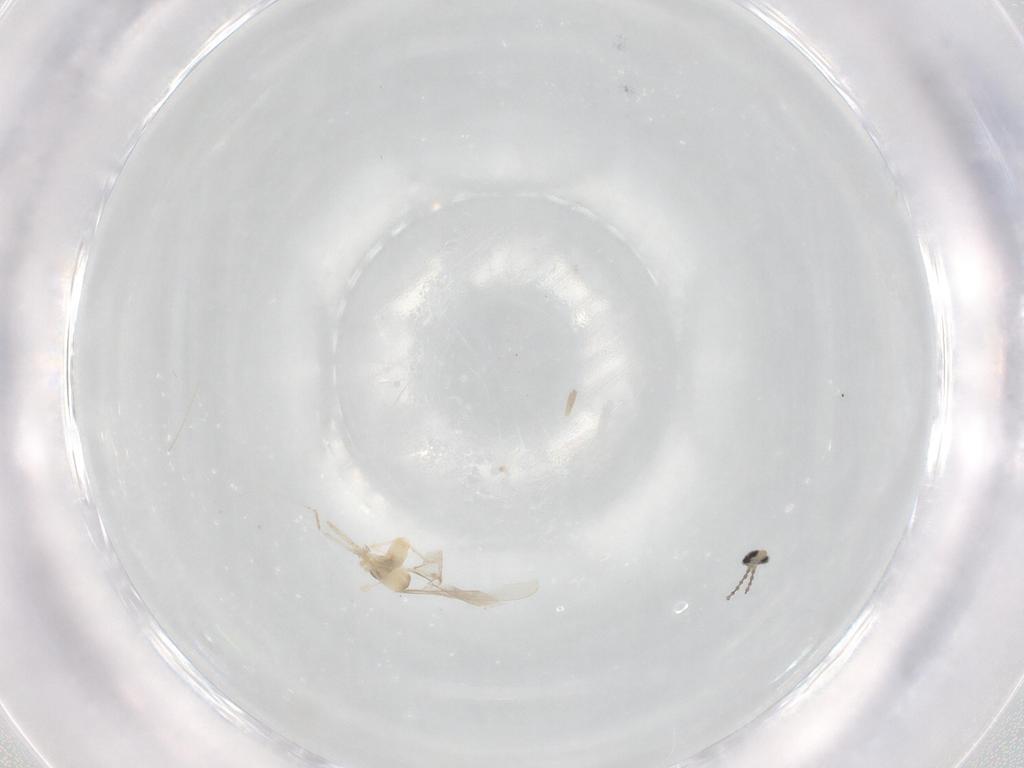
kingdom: Animalia
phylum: Arthropoda
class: Insecta
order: Diptera
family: Cecidomyiidae
